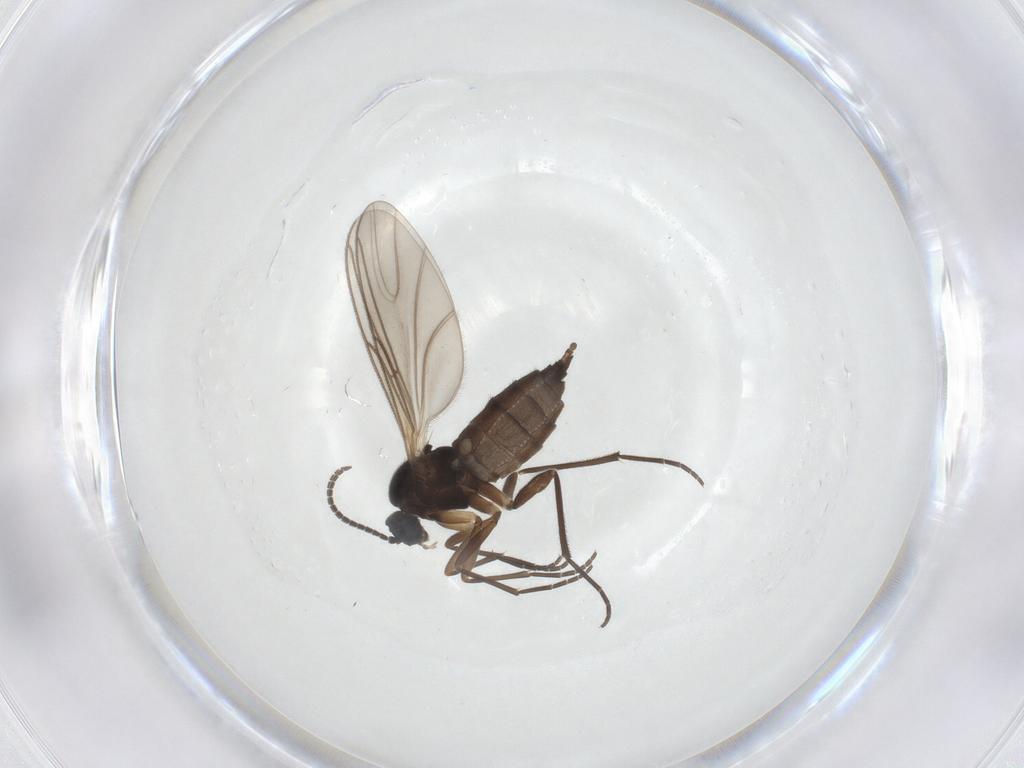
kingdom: Animalia
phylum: Arthropoda
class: Insecta
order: Diptera
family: Sciaridae
